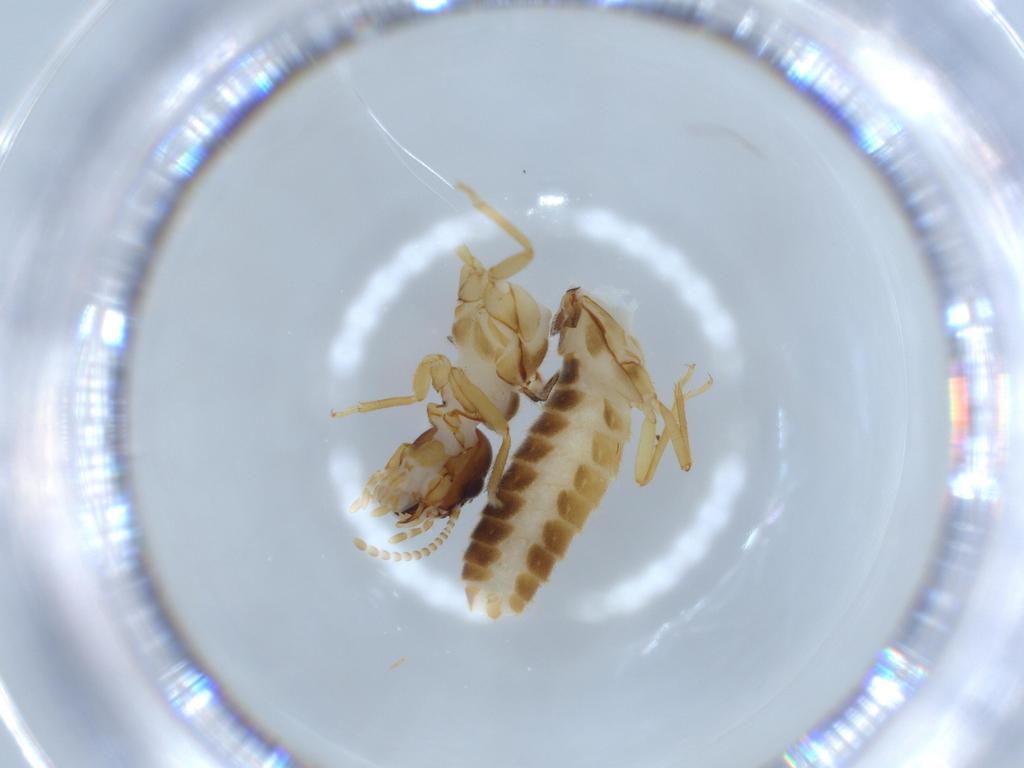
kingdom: Animalia
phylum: Arthropoda
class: Insecta
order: Blattodea
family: Termitidae
